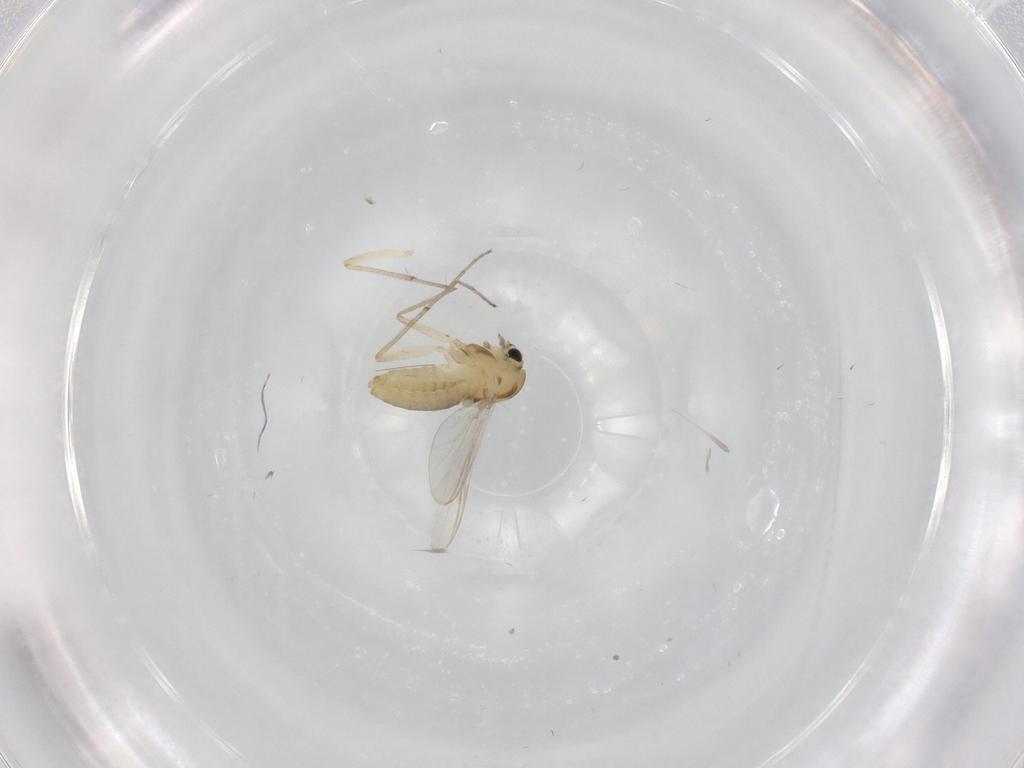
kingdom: Animalia
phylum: Arthropoda
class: Insecta
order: Diptera
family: Chironomidae
